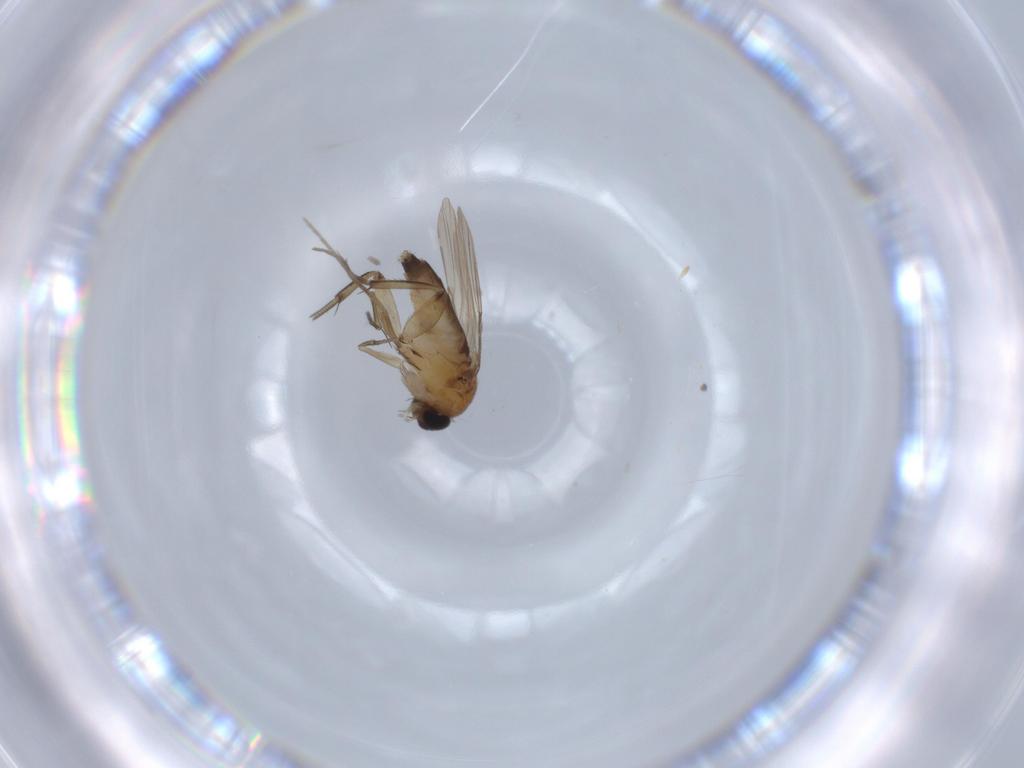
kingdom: Animalia
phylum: Arthropoda
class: Insecta
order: Diptera
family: Phoridae
